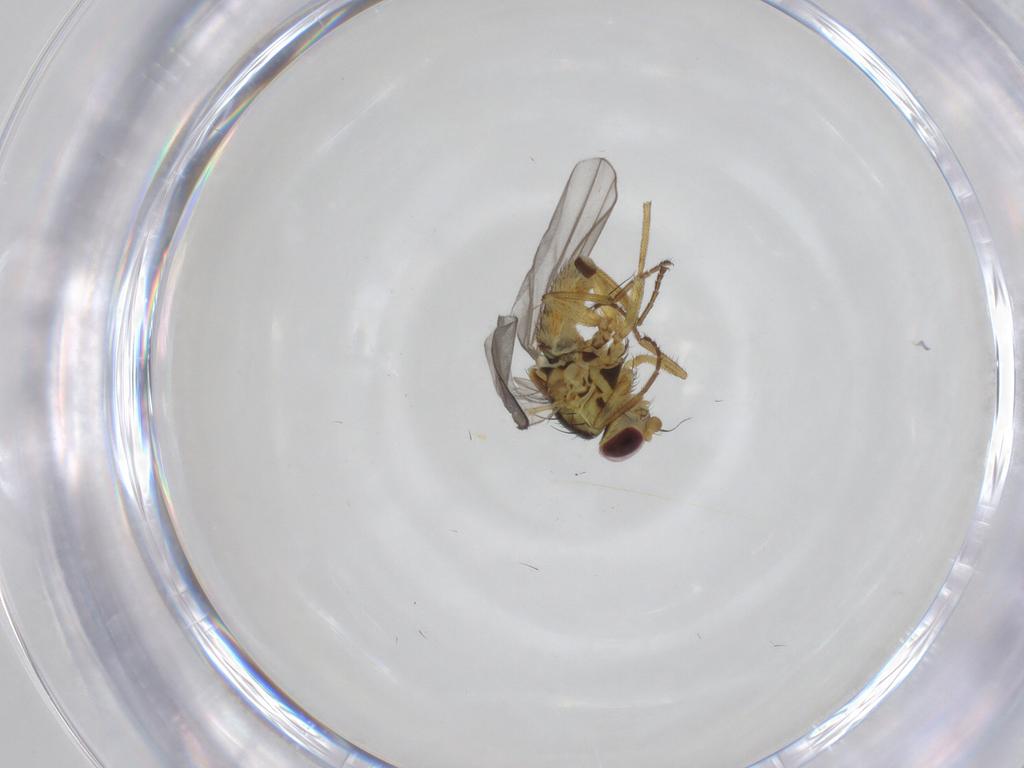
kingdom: Animalia
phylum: Arthropoda
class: Insecta
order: Diptera
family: Agromyzidae
